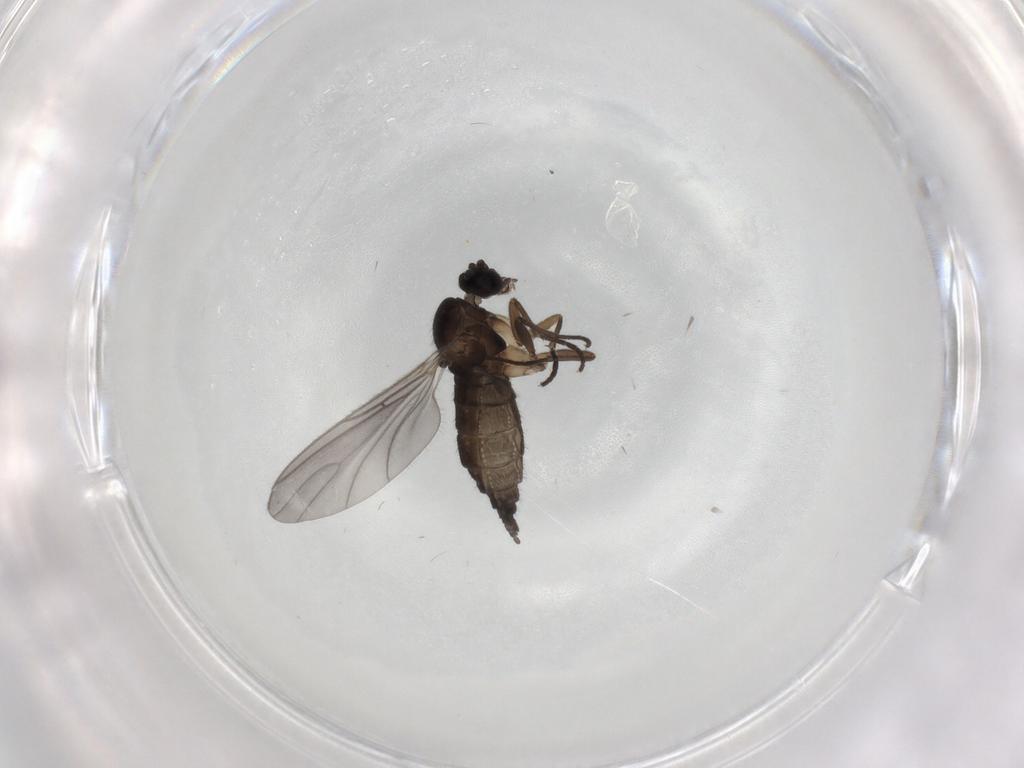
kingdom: Animalia
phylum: Arthropoda
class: Insecta
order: Diptera
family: Sciaridae
